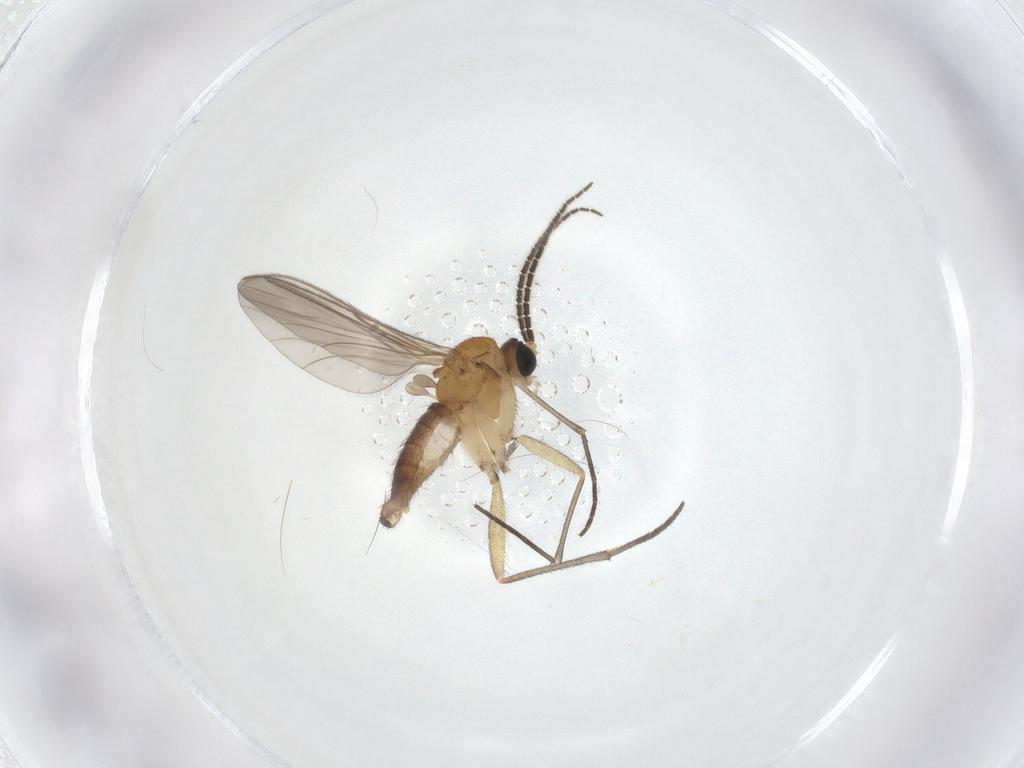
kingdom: Animalia
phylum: Arthropoda
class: Insecta
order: Diptera
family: Sciaridae
